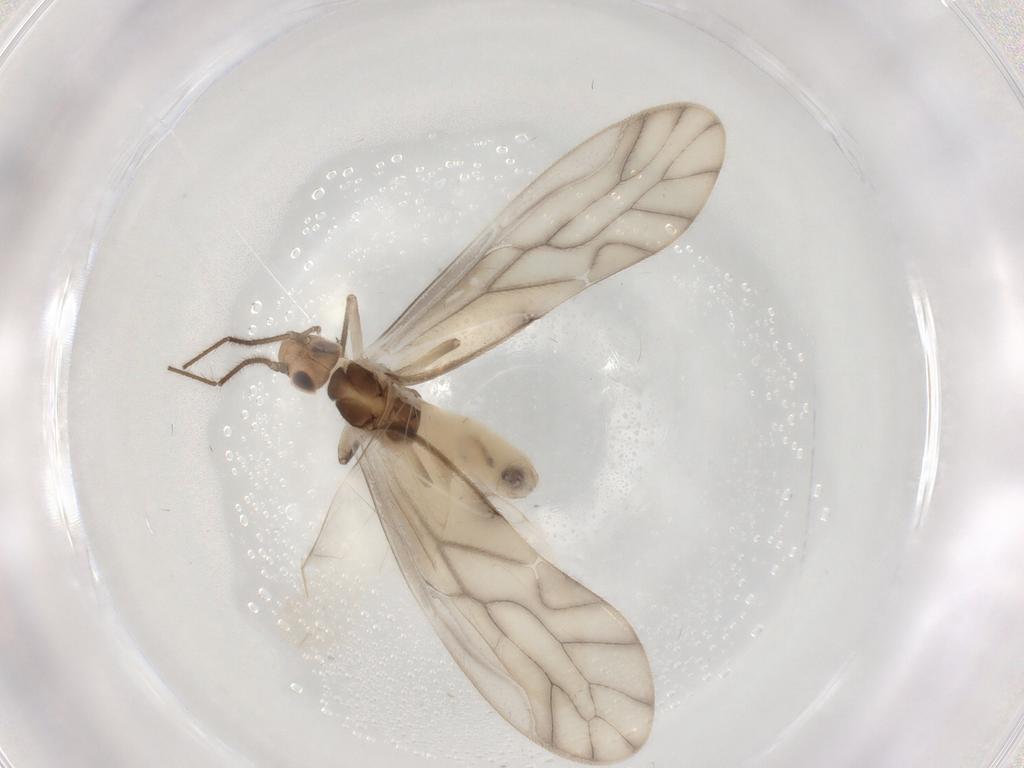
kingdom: Animalia
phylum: Arthropoda
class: Insecta
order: Psocodea
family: Caeciliusidae
